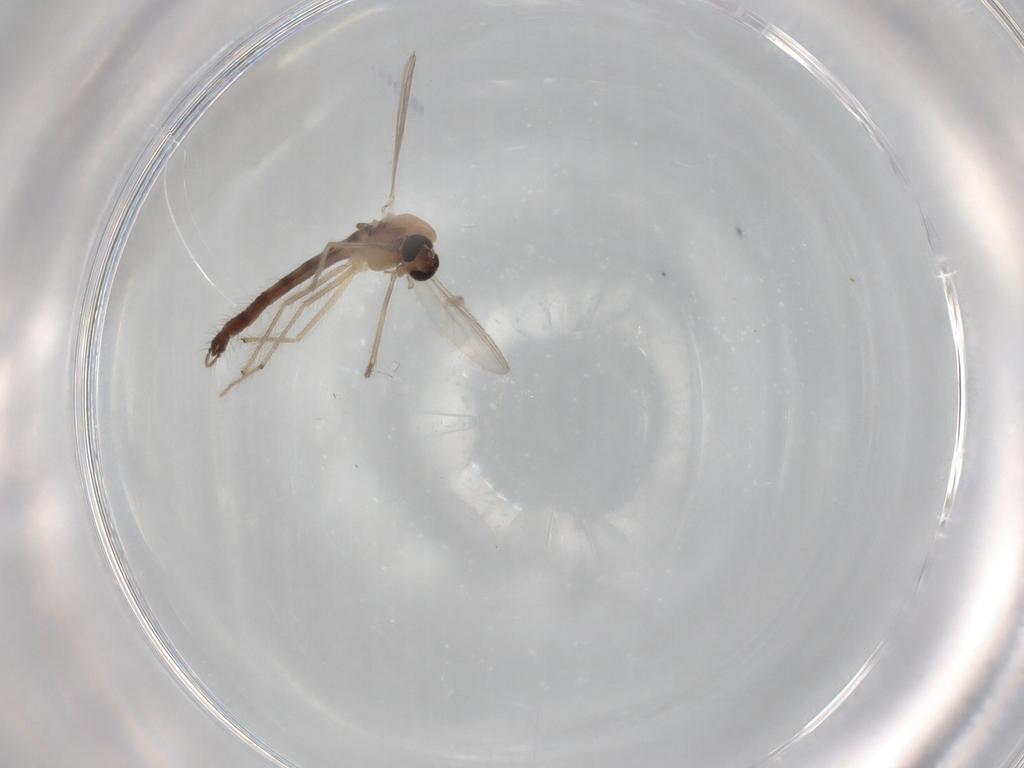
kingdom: Animalia
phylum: Arthropoda
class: Insecta
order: Diptera
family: Chironomidae
